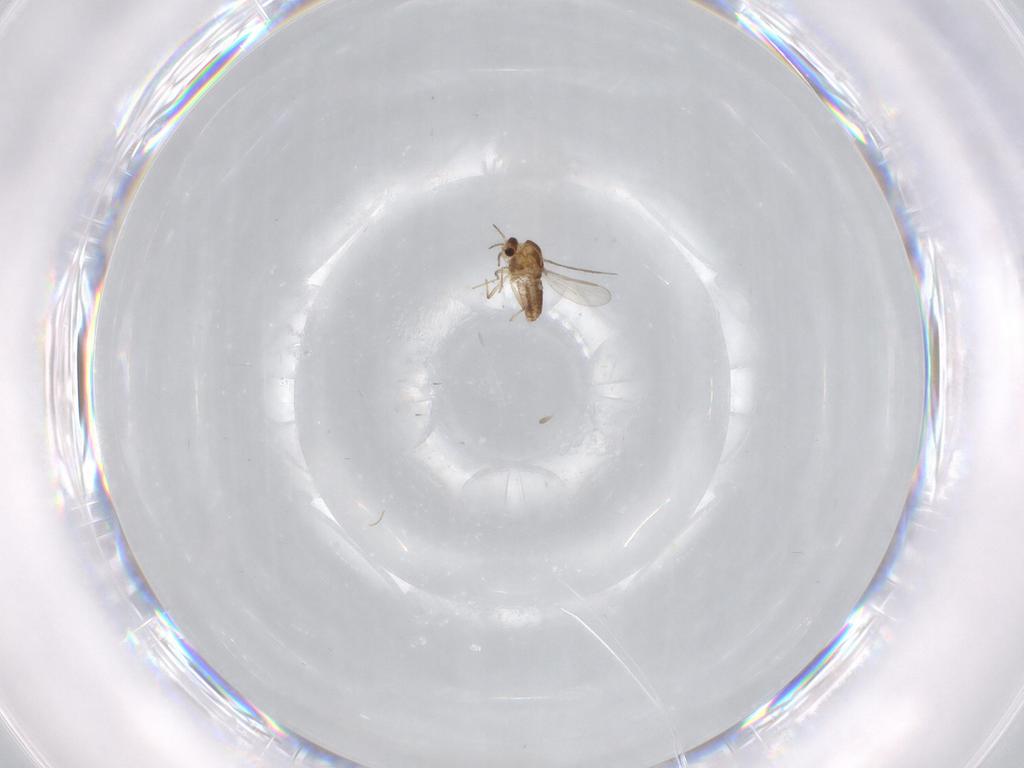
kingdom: Animalia
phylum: Arthropoda
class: Insecta
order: Diptera
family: Chironomidae
